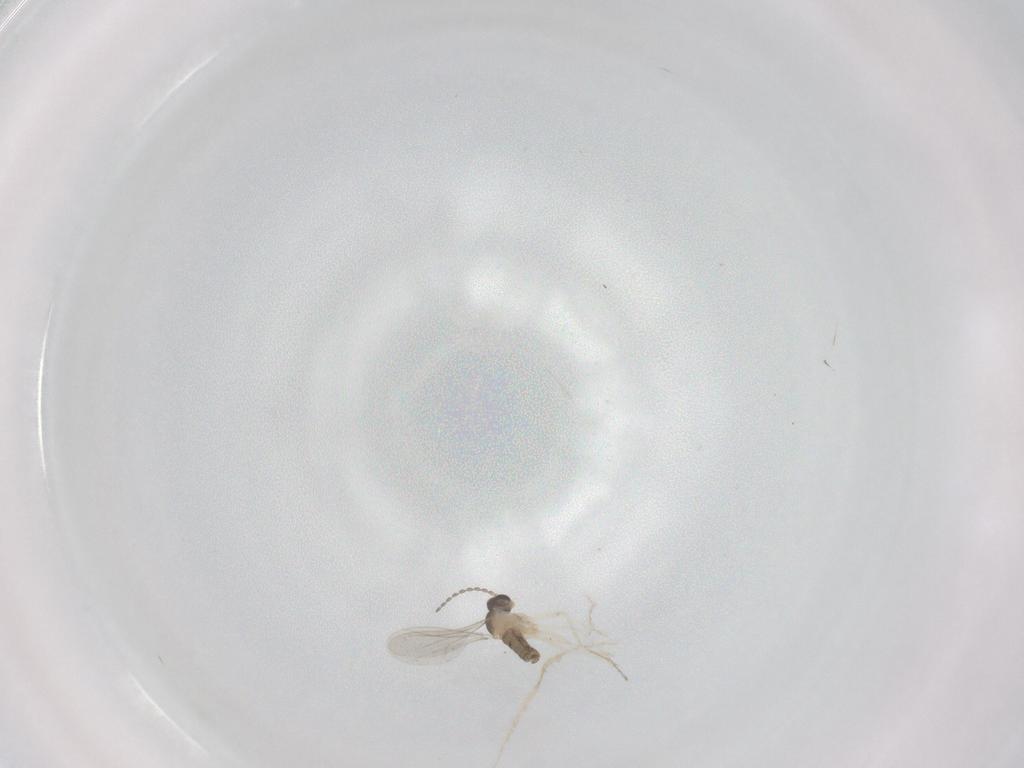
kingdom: Animalia
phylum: Arthropoda
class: Insecta
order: Diptera
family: Cecidomyiidae
